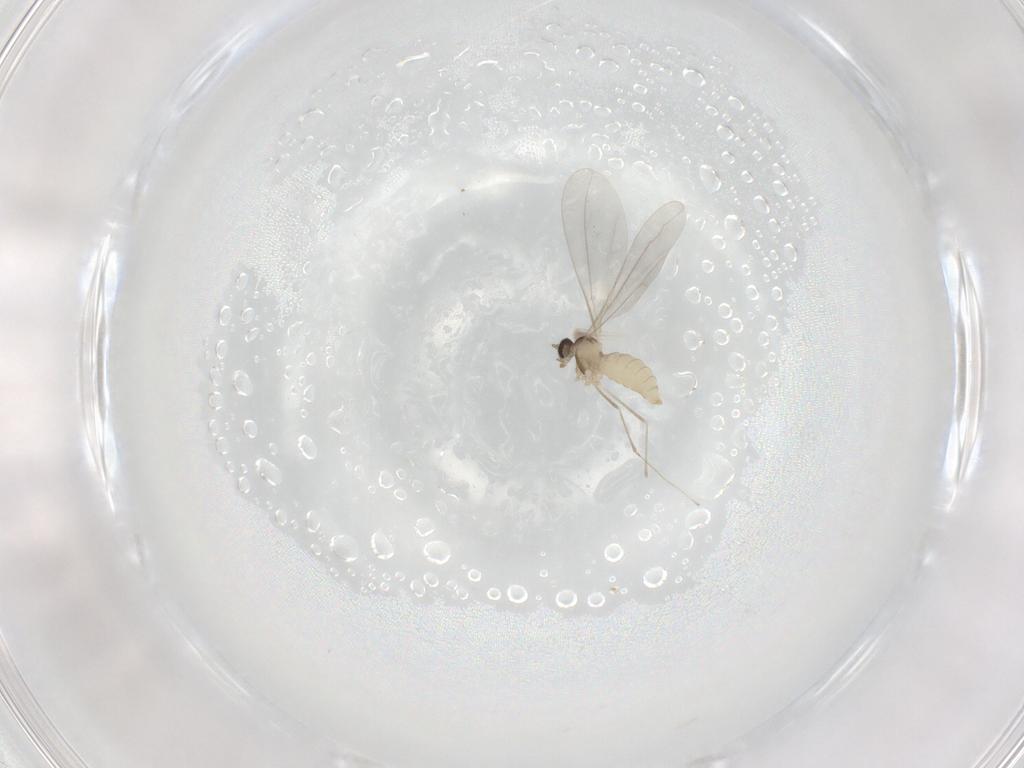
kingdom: Animalia
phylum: Arthropoda
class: Insecta
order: Diptera
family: Cecidomyiidae
